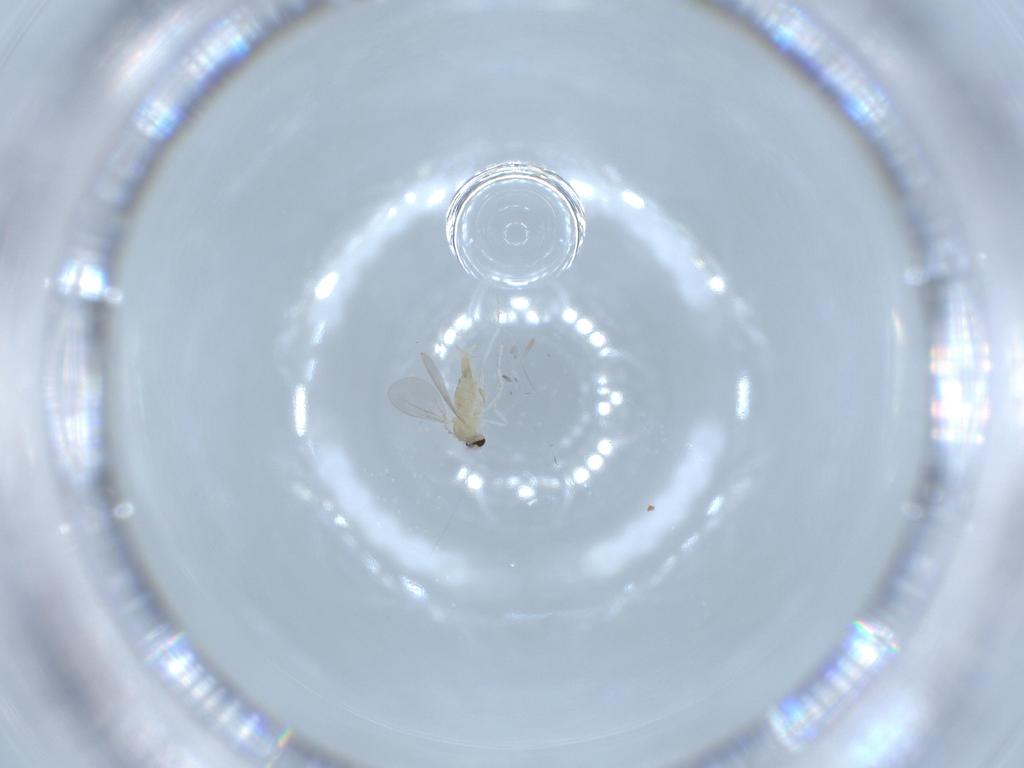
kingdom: Animalia
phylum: Arthropoda
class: Insecta
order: Diptera
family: Cecidomyiidae
